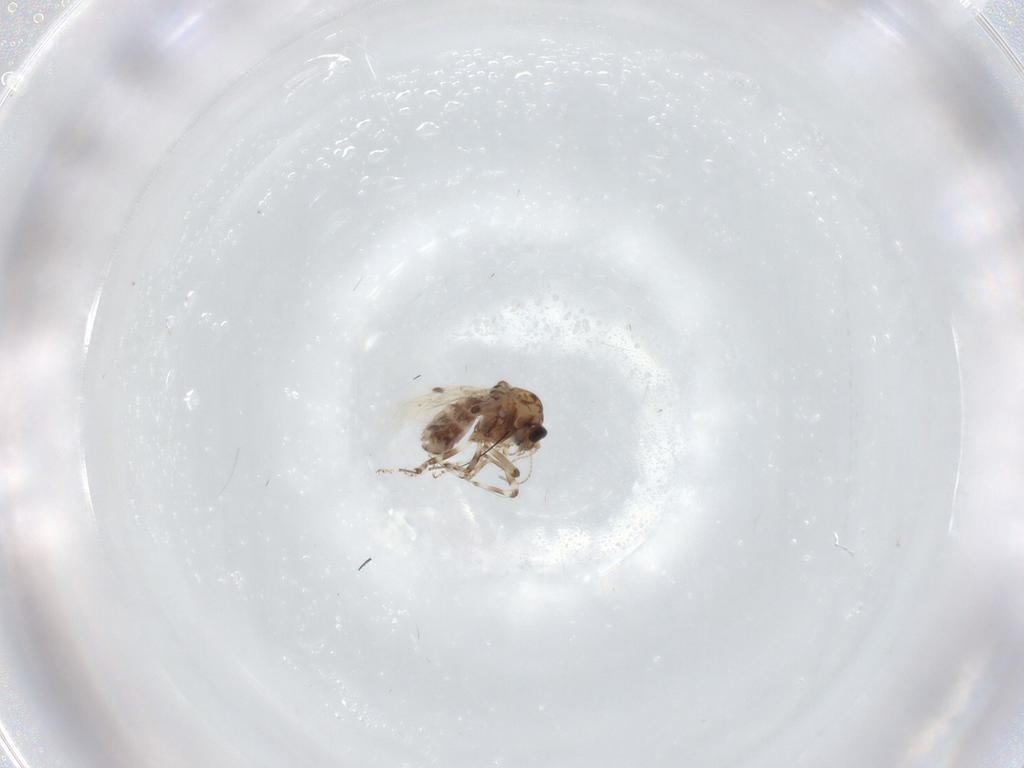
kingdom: Animalia
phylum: Arthropoda
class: Insecta
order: Diptera
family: Ceratopogonidae
